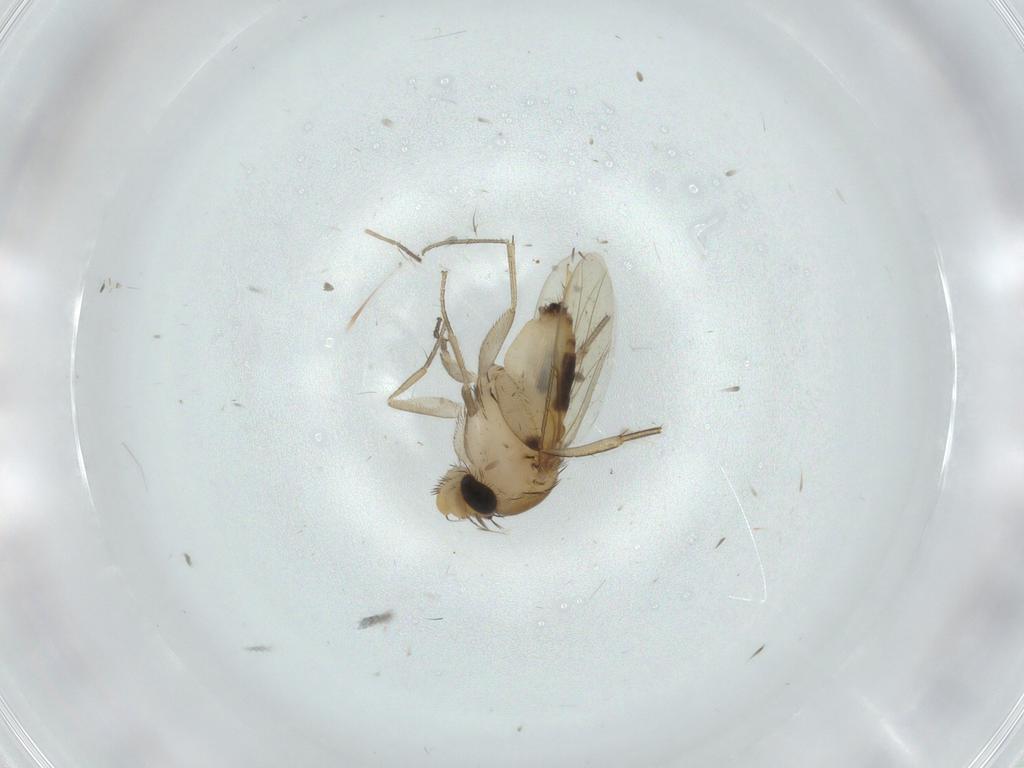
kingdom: Animalia
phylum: Arthropoda
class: Insecta
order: Diptera
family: Phoridae
